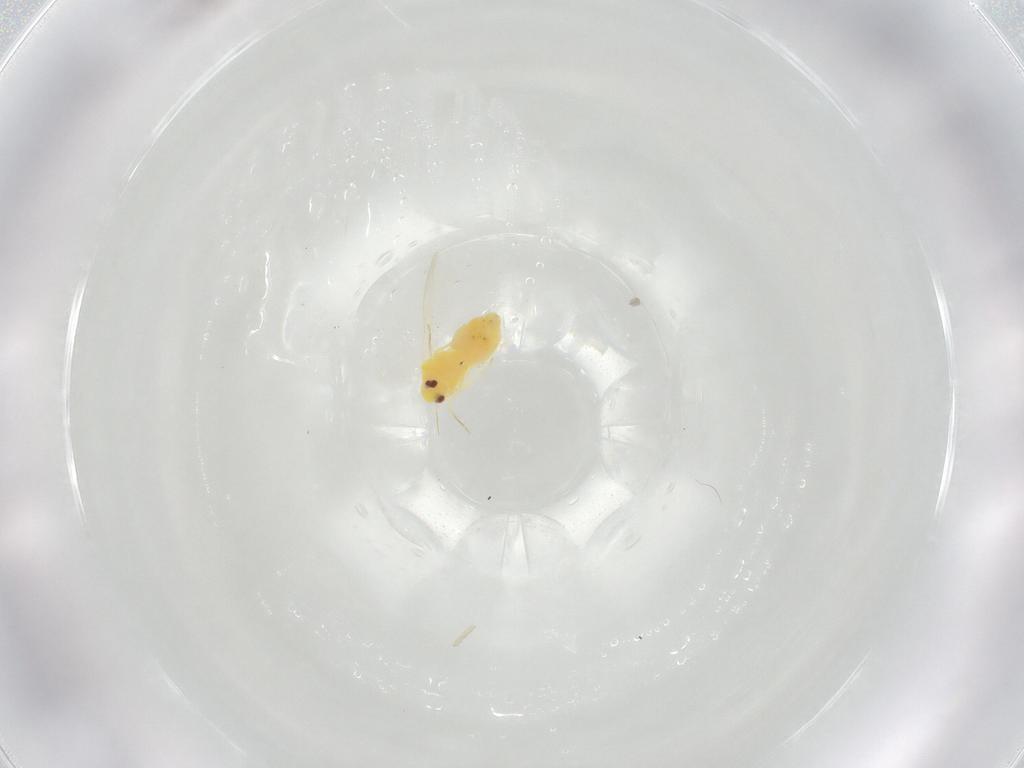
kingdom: Animalia
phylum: Arthropoda
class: Insecta
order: Hemiptera
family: Aleyrodidae
